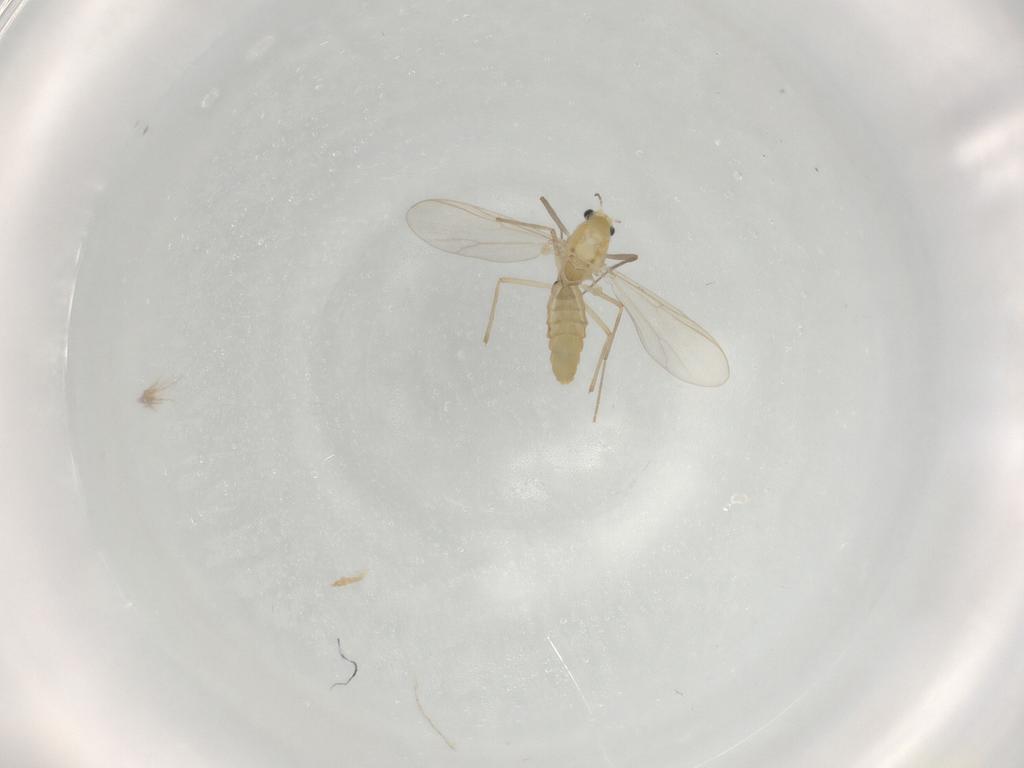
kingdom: Animalia
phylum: Arthropoda
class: Insecta
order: Diptera
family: Chironomidae
